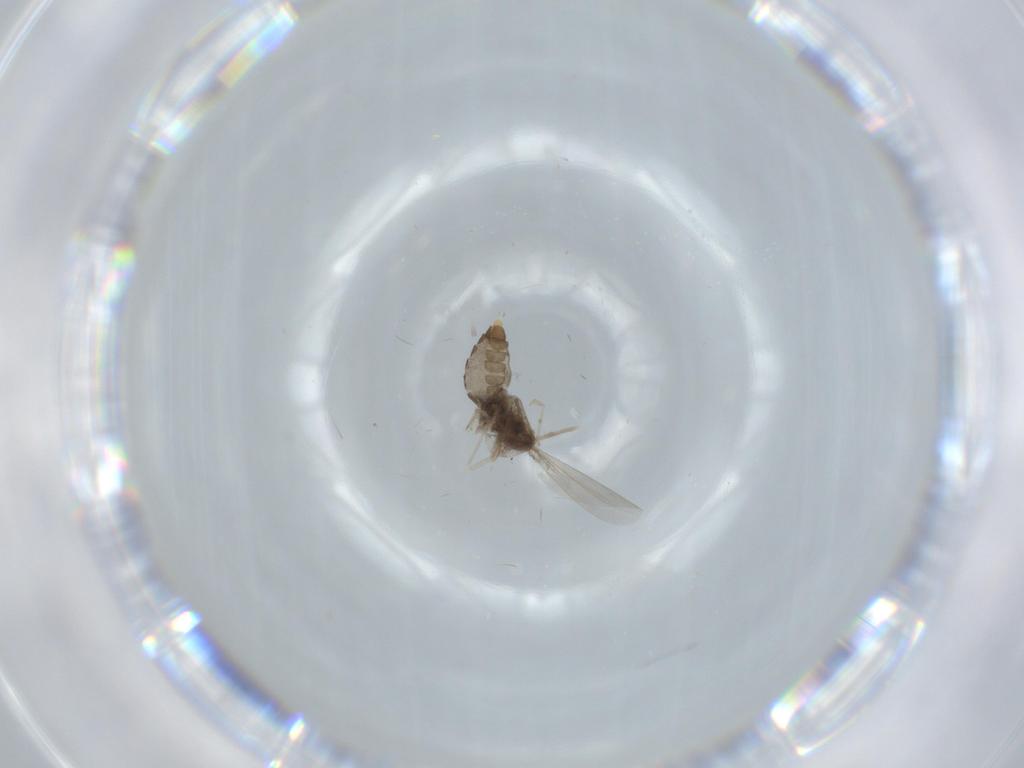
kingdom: Animalia
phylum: Arthropoda
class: Insecta
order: Diptera
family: Cecidomyiidae
